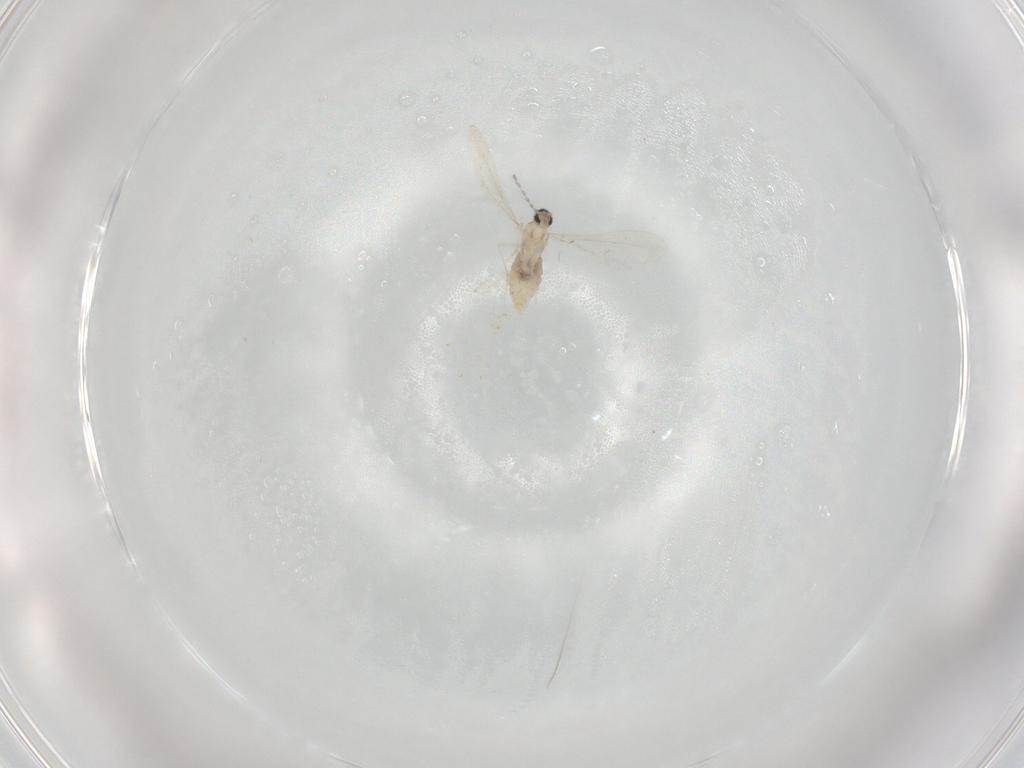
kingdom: Animalia
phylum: Arthropoda
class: Insecta
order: Diptera
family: Cecidomyiidae
